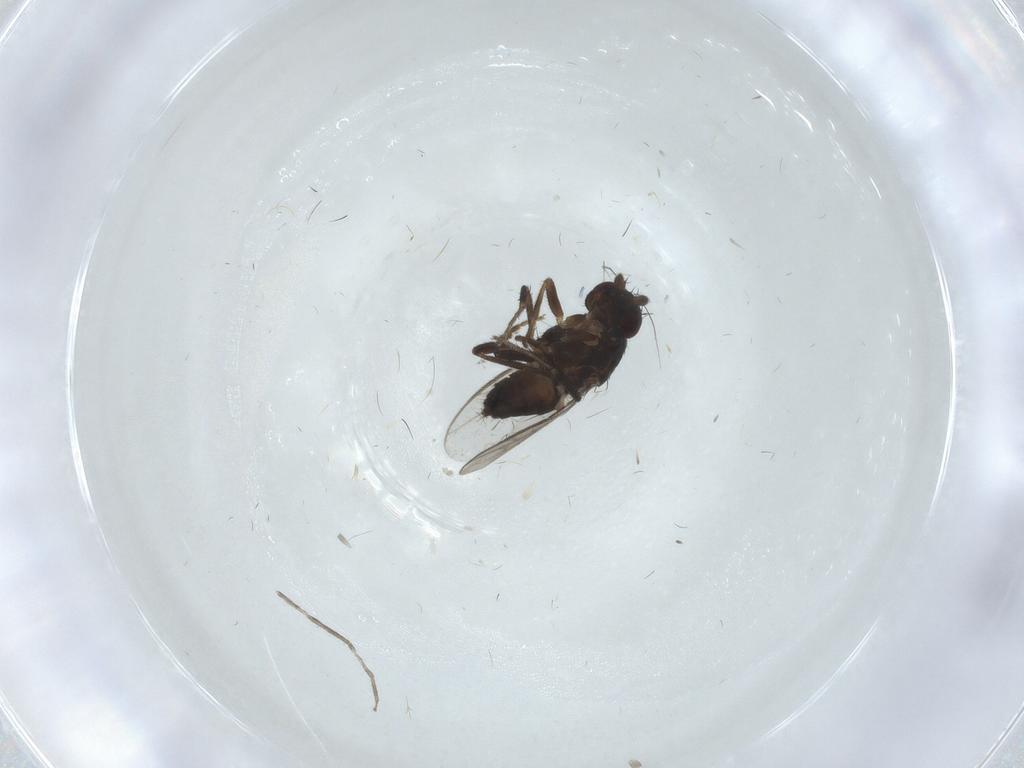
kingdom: Animalia
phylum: Arthropoda
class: Insecta
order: Diptera
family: Sphaeroceridae
